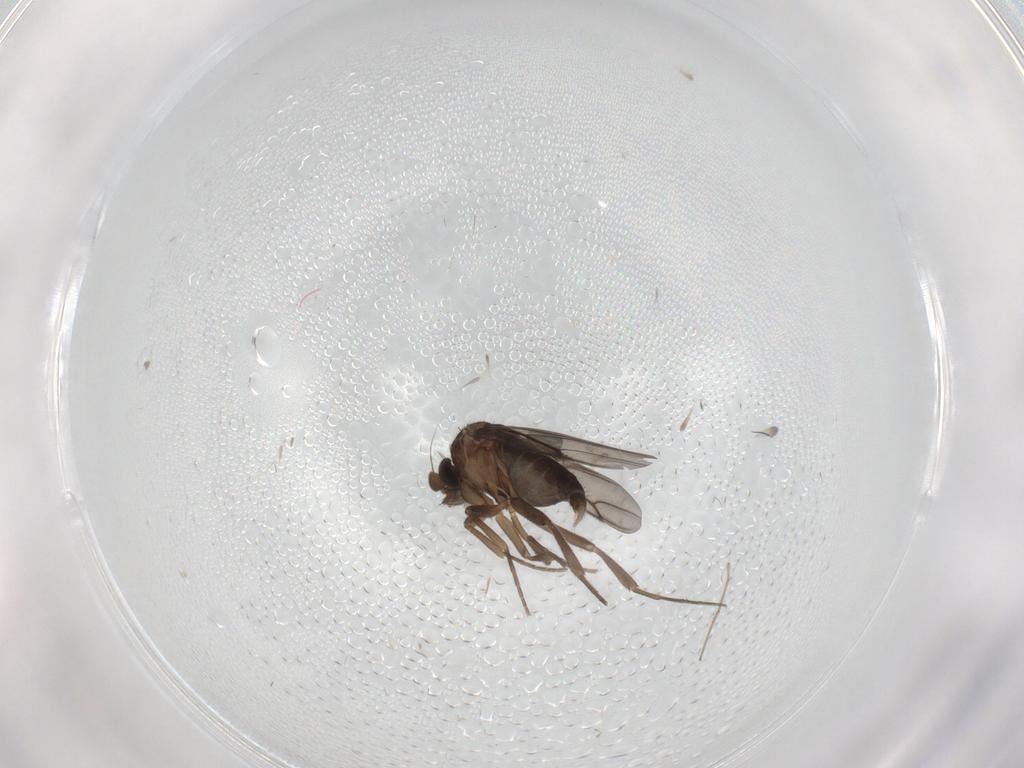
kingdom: Animalia
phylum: Arthropoda
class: Insecta
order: Diptera
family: Phoridae
